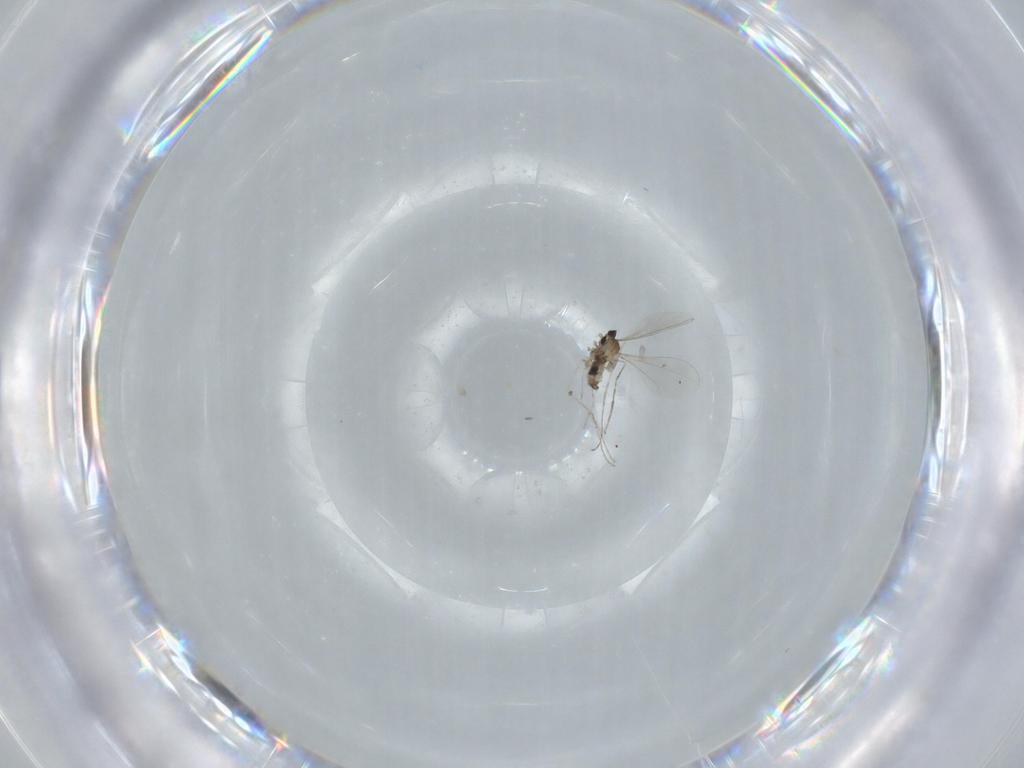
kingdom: Animalia
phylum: Arthropoda
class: Insecta
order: Diptera
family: Cecidomyiidae
